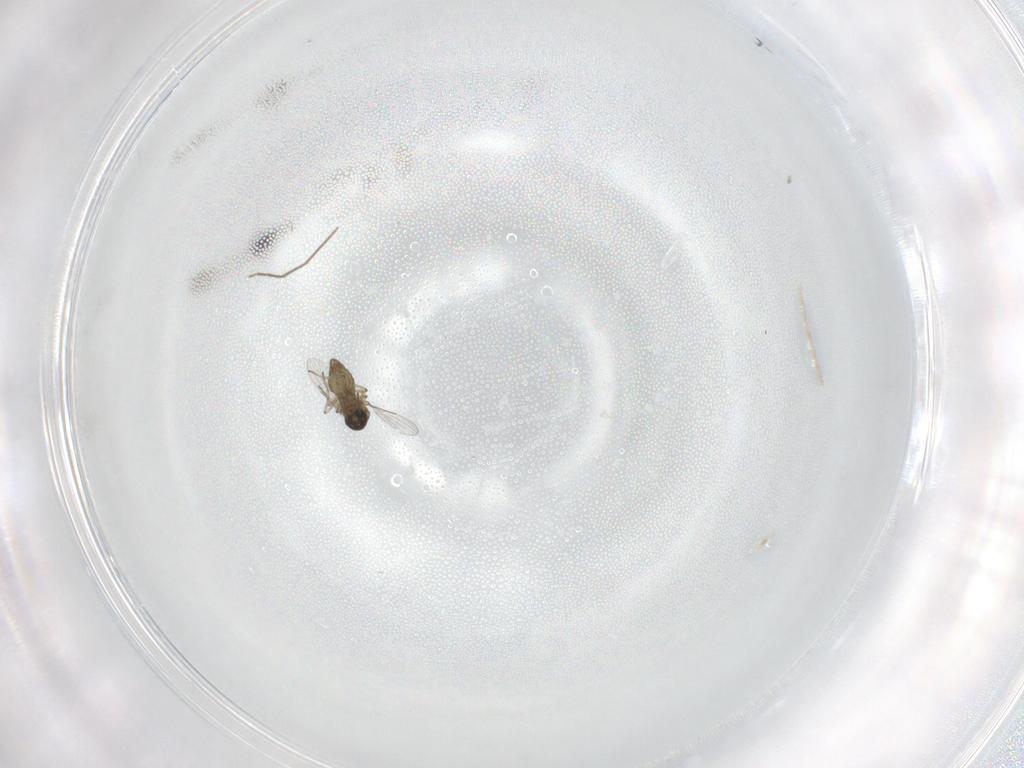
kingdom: Animalia
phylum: Arthropoda
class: Insecta
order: Diptera
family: Ceratopogonidae
